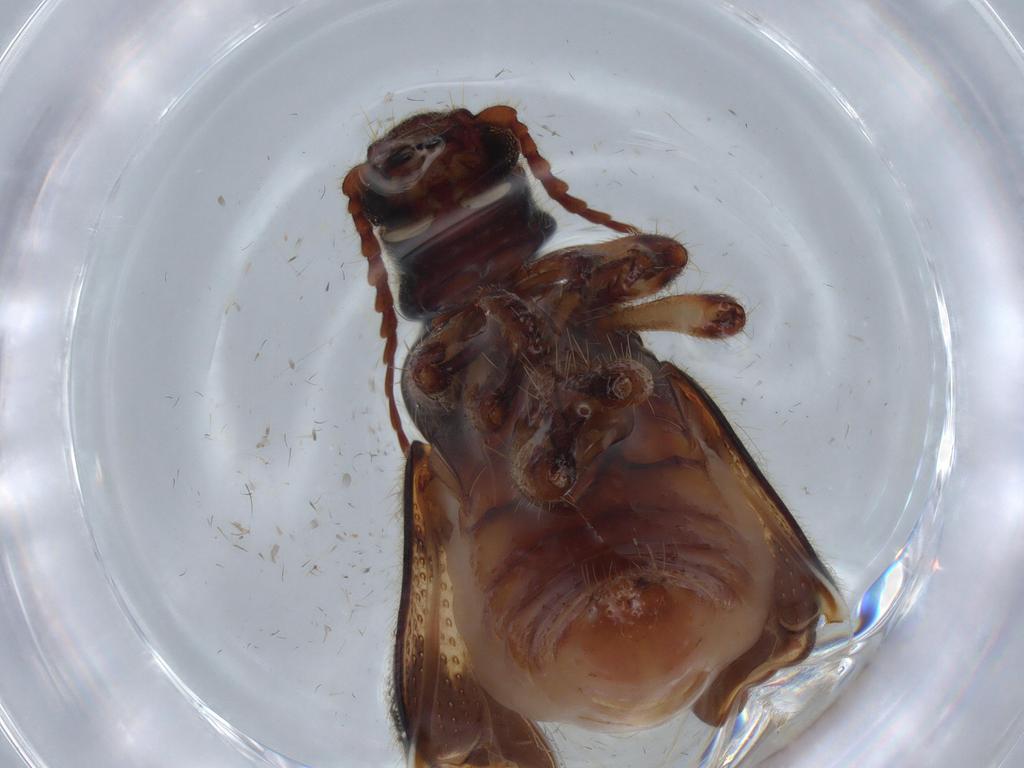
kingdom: Animalia
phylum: Arthropoda
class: Insecta
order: Coleoptera
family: Cleridae
